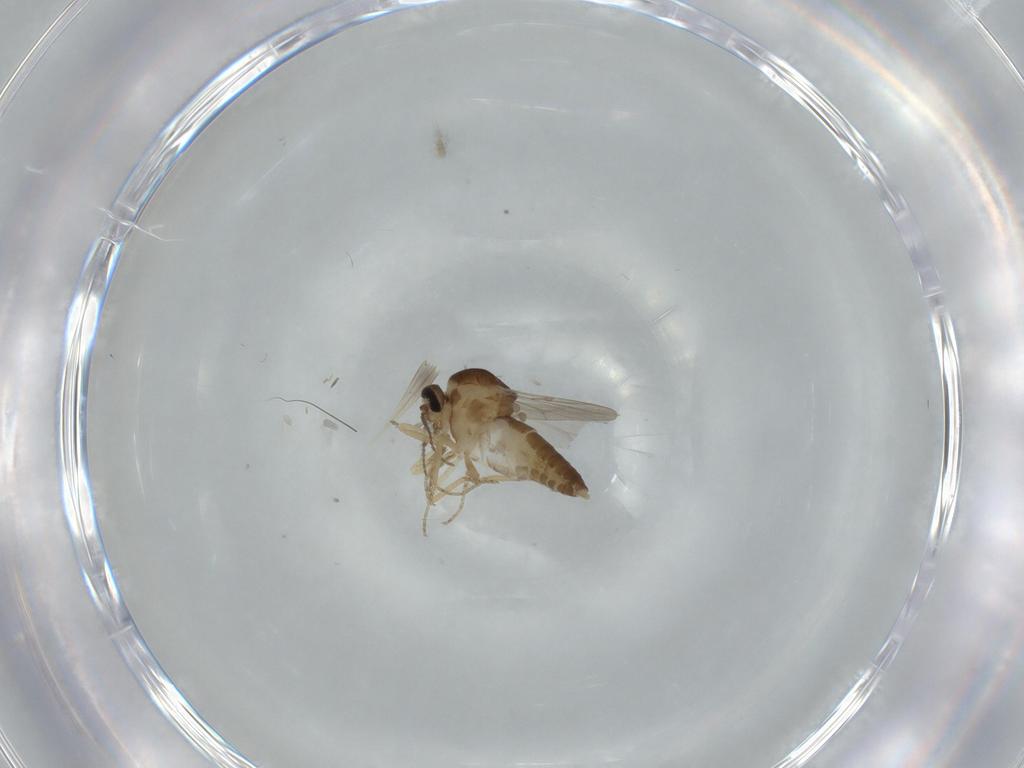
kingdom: Animalia
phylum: Arthropoda
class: Insecta
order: Diptera
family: Ceratopogonidae
